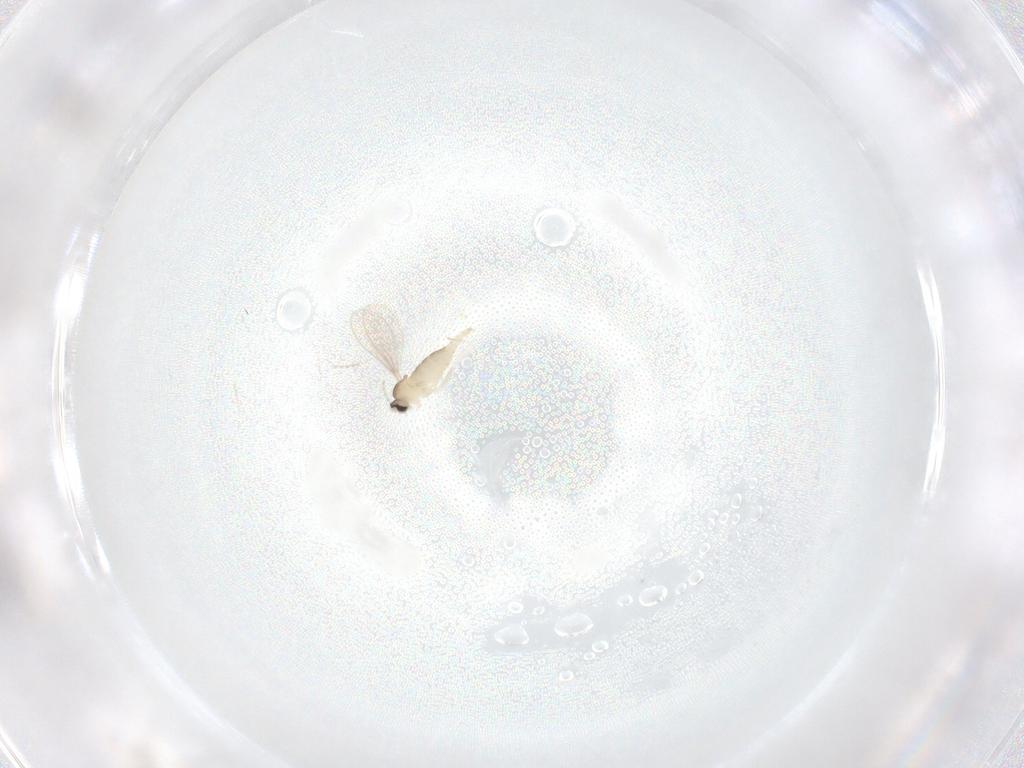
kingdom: Animalia
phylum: Arthropoda
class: Insecta
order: Diptera
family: Cecidomyiidae
